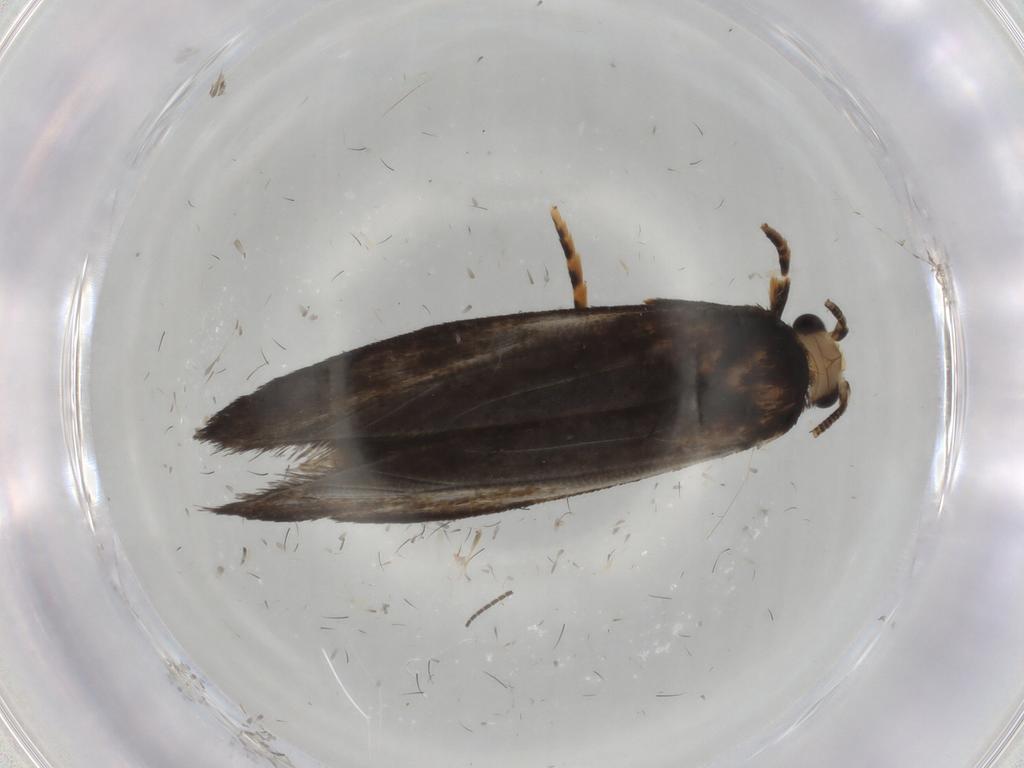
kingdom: Animalia
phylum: Arthropoda
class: Insecta
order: Lepidoptera
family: Tineidae
